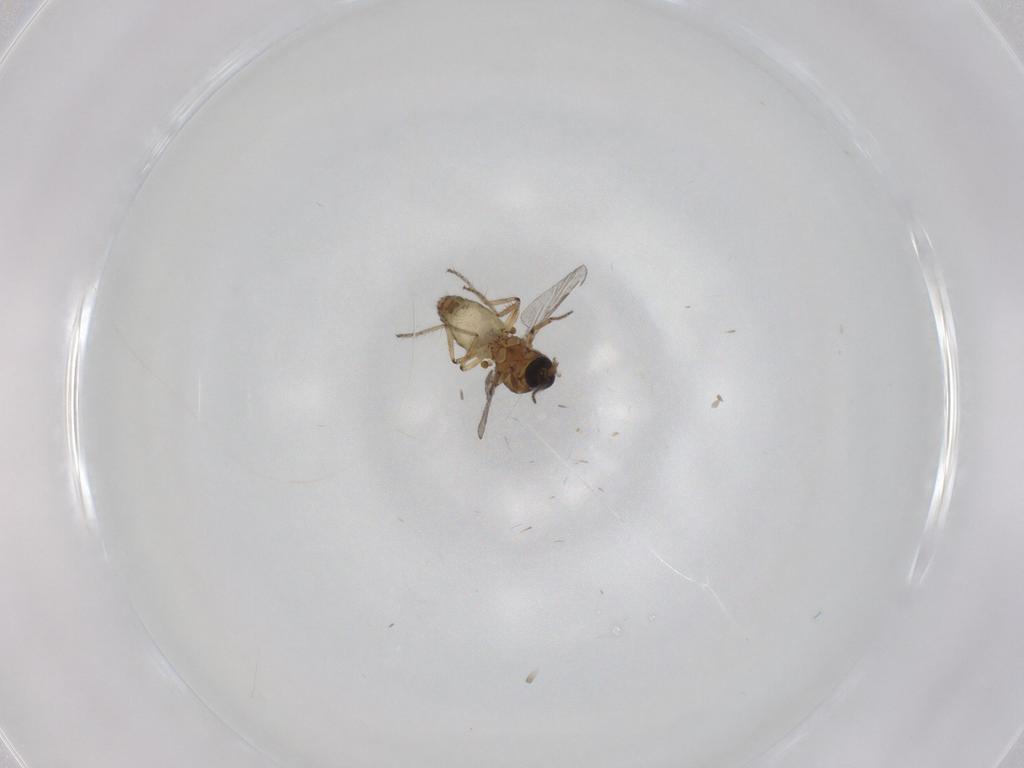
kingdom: Animalia
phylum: Arthropoda
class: Insecta
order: Diptera
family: Ceratopogonidae
